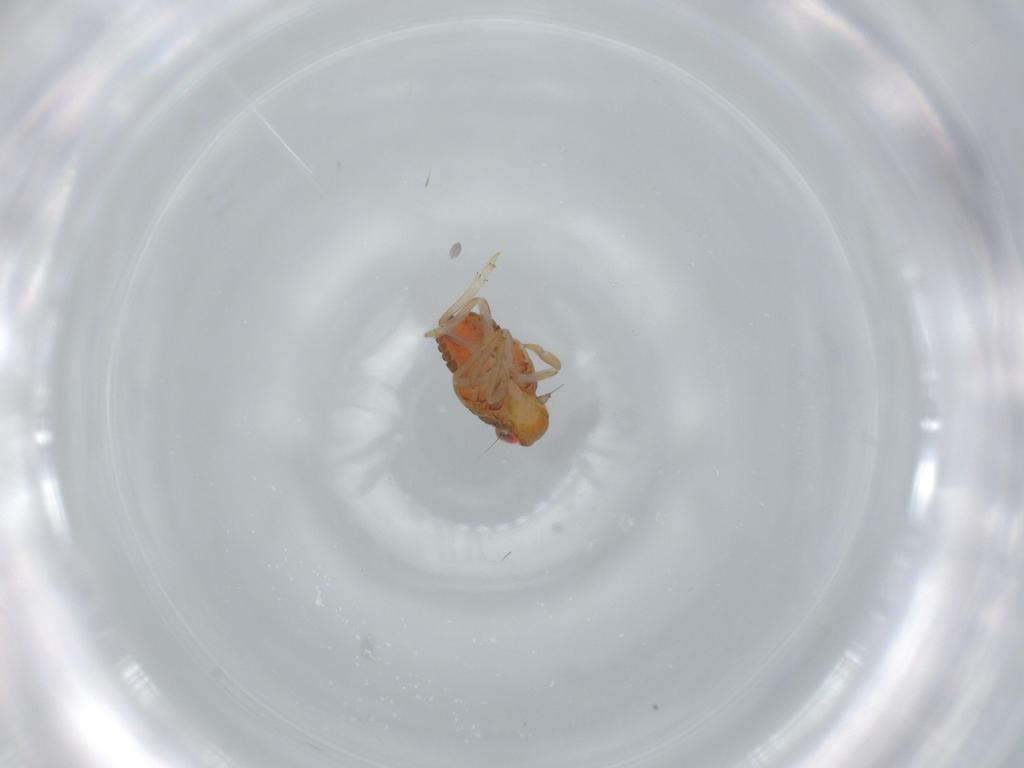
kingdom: Animalia
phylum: Arthropoda
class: Insecta
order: Hemiptera
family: Issidae
